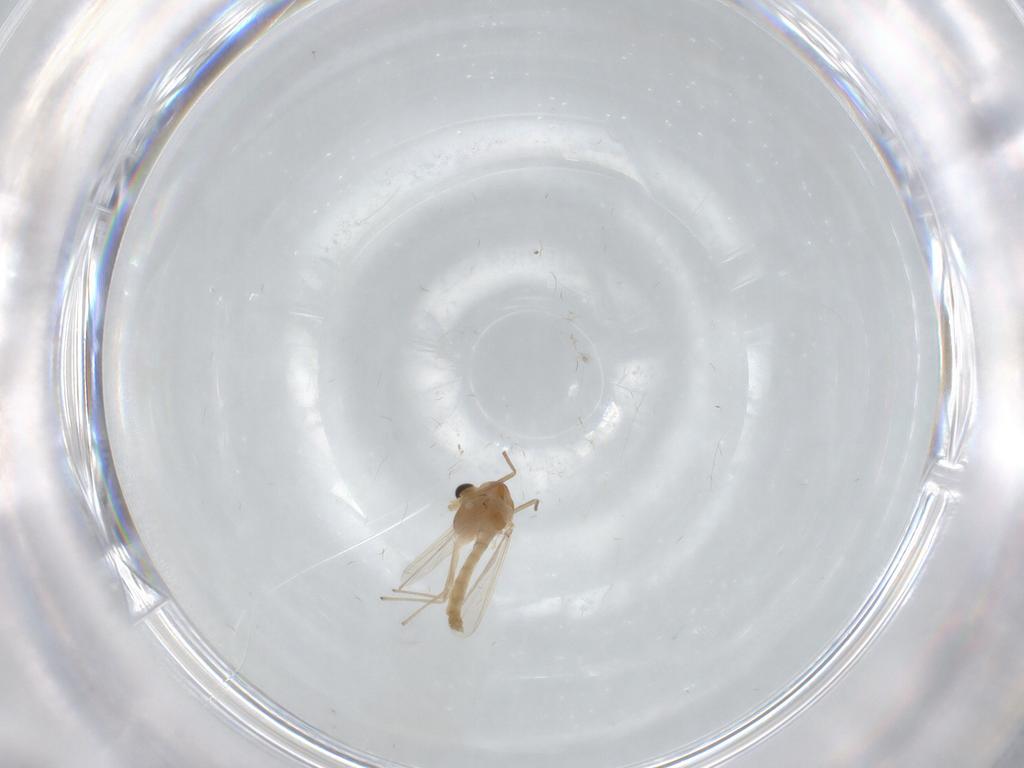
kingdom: Animalia
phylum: Arthropoda
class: Insecta
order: Diptera
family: Chironomidae
